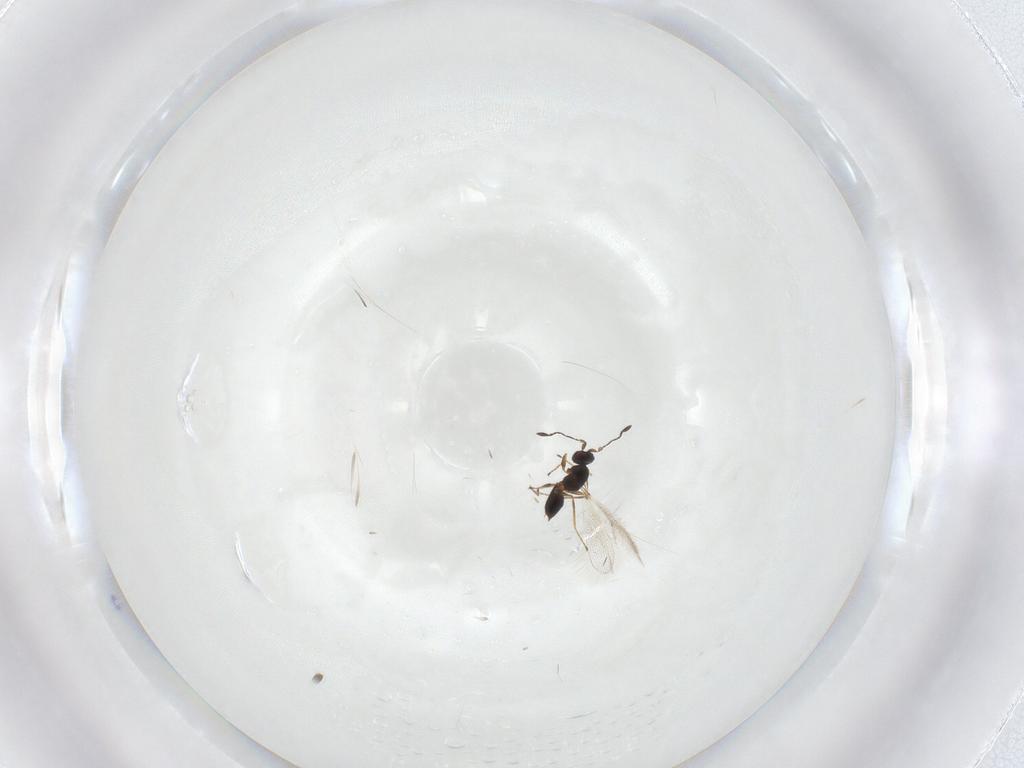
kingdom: Animalia
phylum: Arthropoda
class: Insecta
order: Hymenoptera
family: Mymaridae
